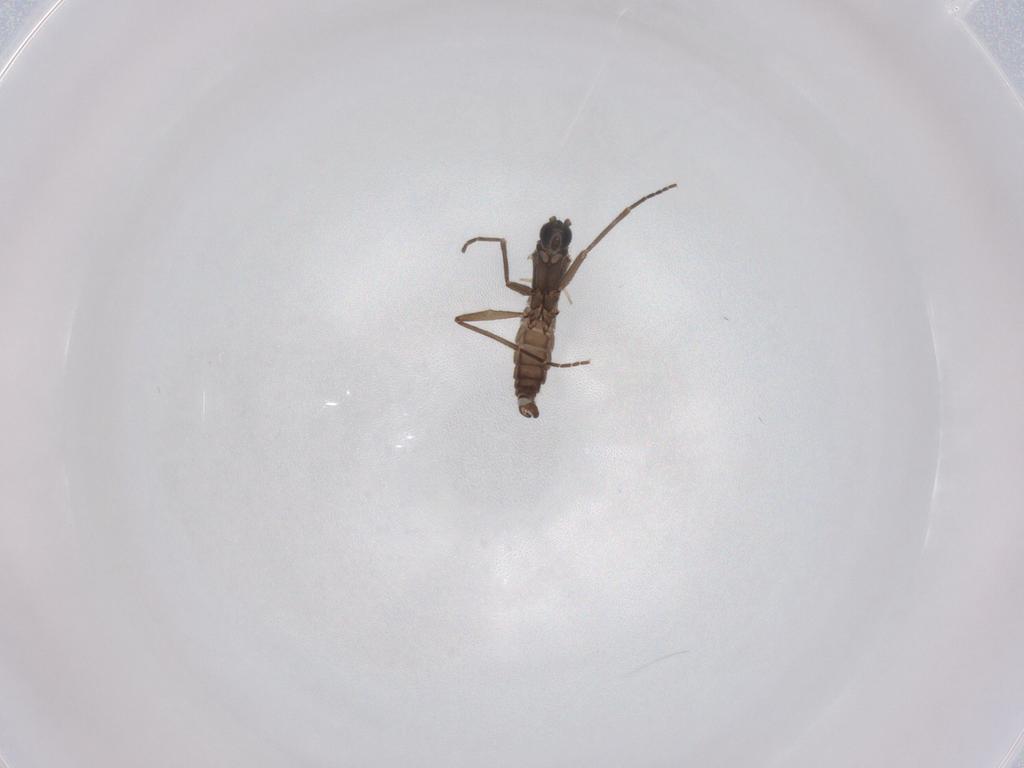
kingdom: Animalia
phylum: Arthropoda
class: Insecta
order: Diptera
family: Sciaridae
